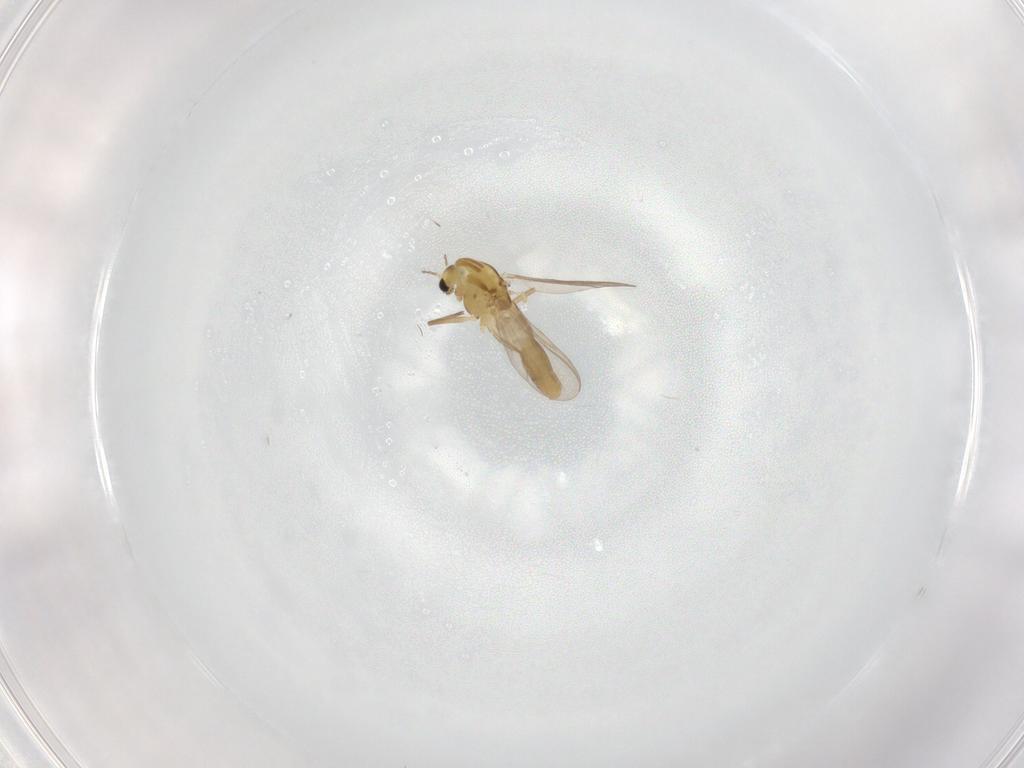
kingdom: Animalia
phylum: Arthropoda
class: Insecta
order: Diptera
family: Chironomidae
